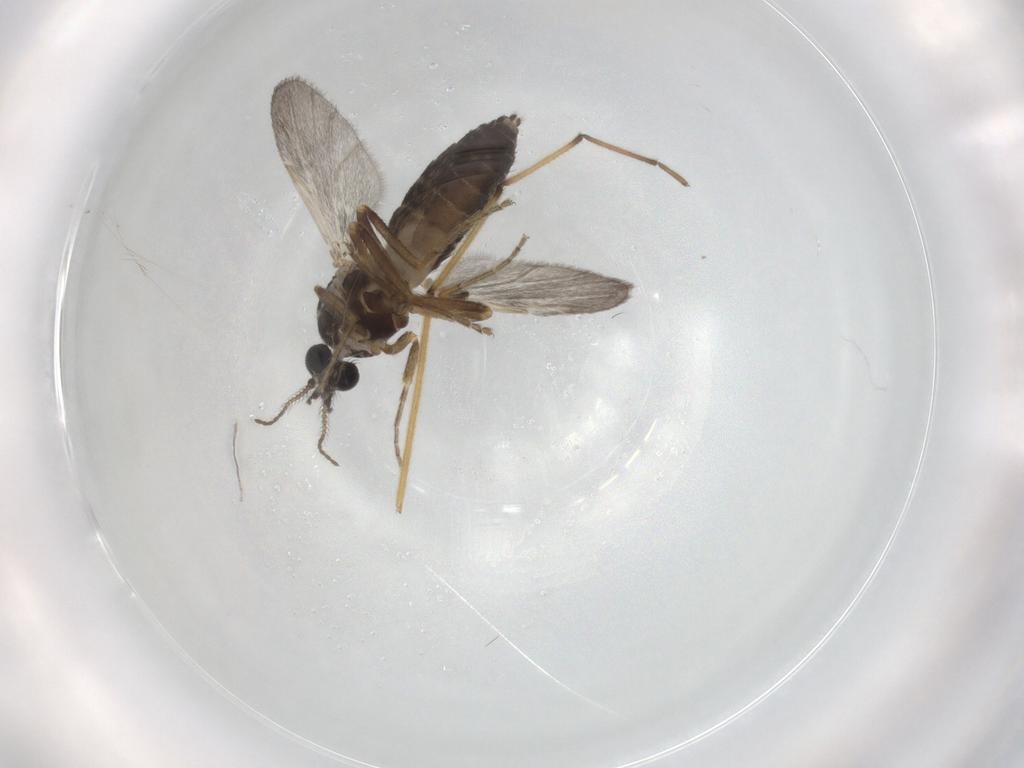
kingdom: Animalia
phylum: Arthropoda
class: Insecta
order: Diptera
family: Ceratopogonidae
